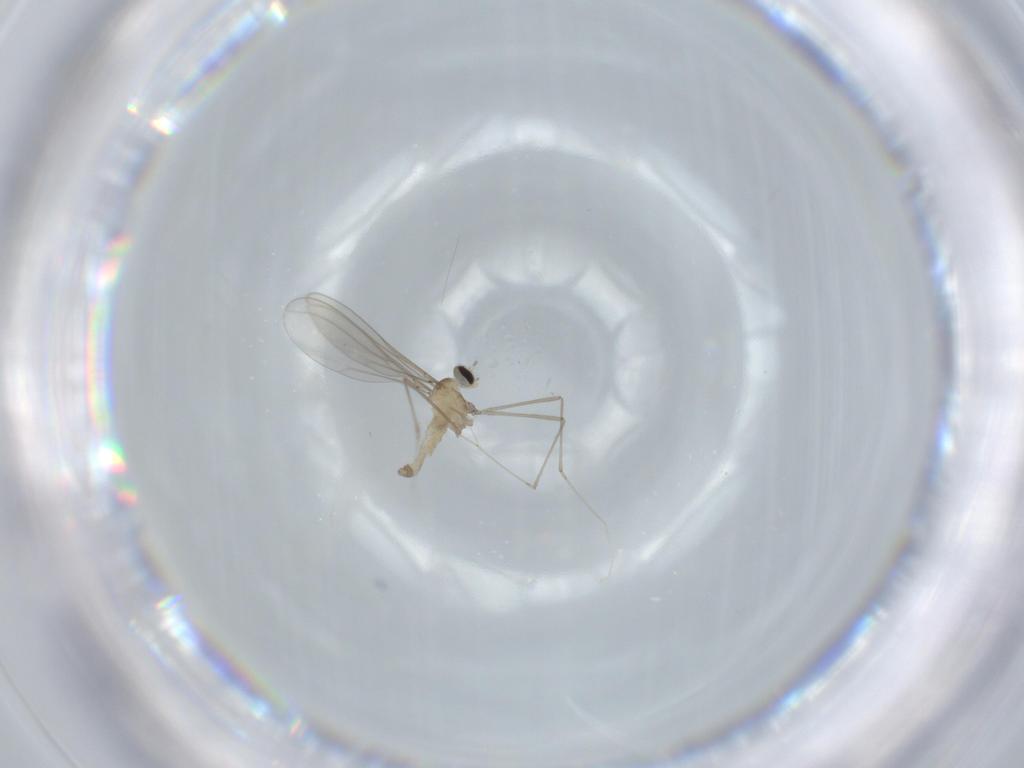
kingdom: Animalia
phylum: Arthropoda
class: Insecta
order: Diptera
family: Cecidomyiidae
